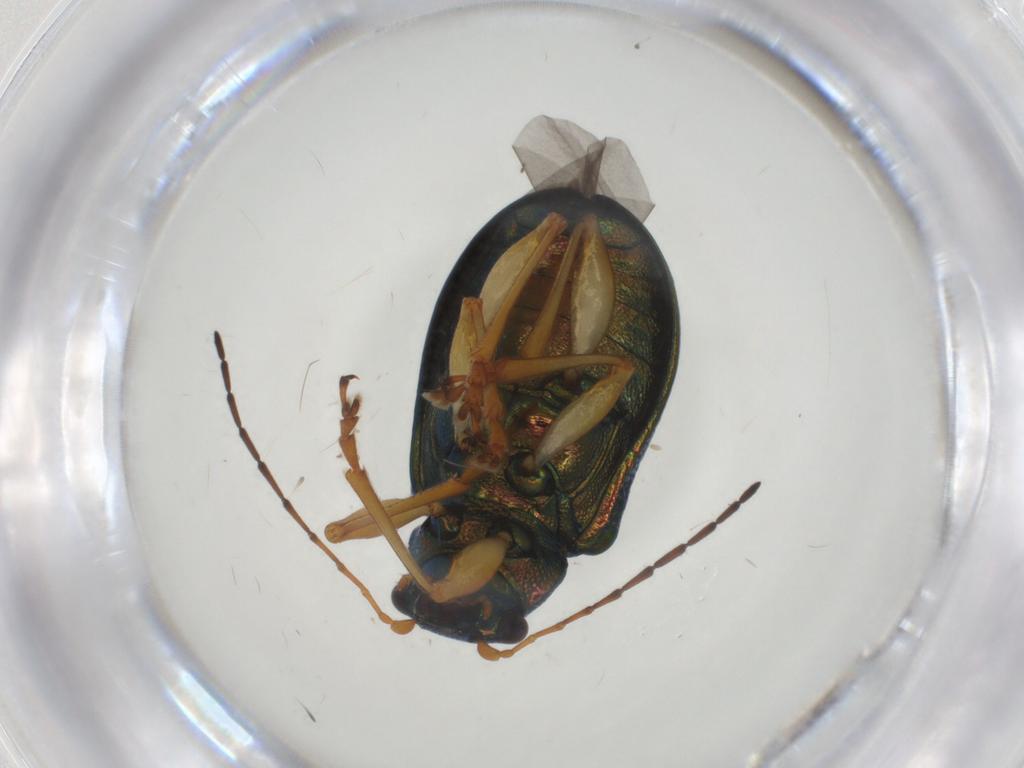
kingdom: Animalia
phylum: Arthropoda
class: Insecta
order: Coleoptera
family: Chrysomelidae
